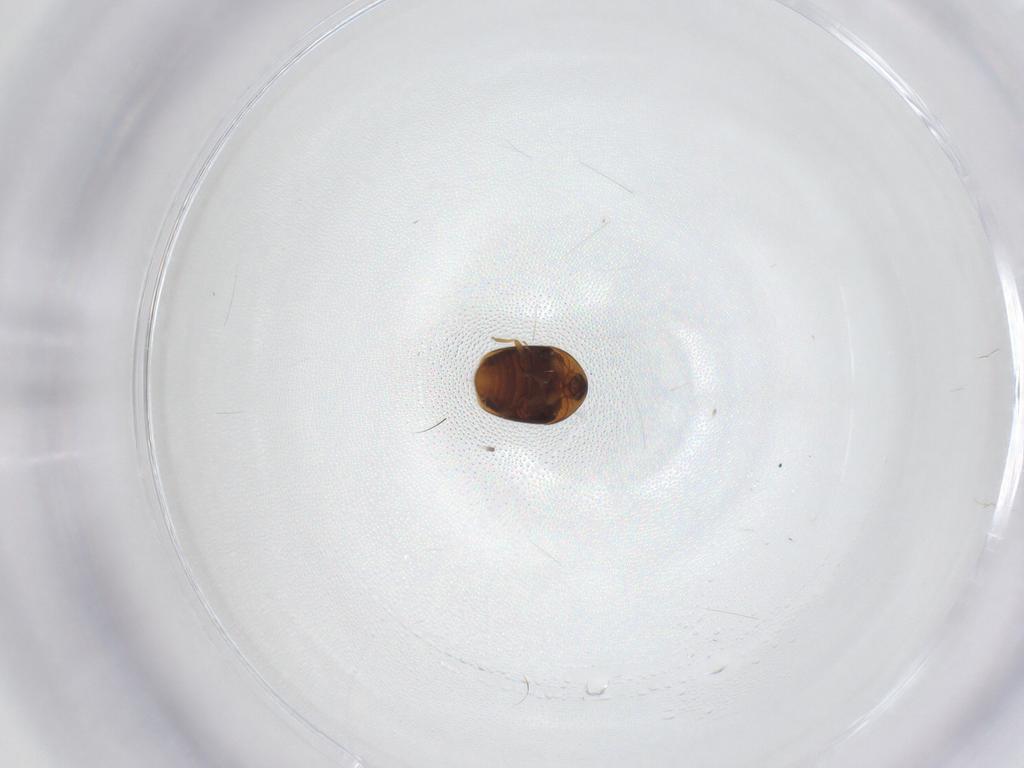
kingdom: Animalia
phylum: Arthropoda
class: Insecta
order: Coleoptera
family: Corylophidae
